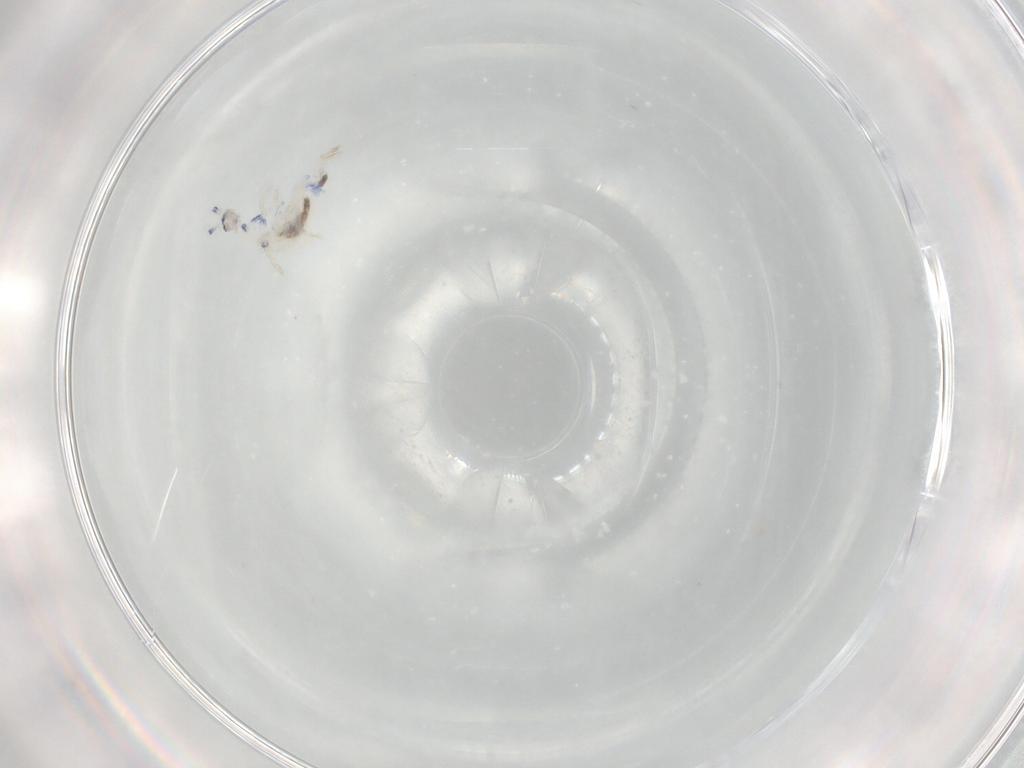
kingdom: Animalia
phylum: Arthropoda
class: Collembola
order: Entomobryomorpha
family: Entomobryidae
